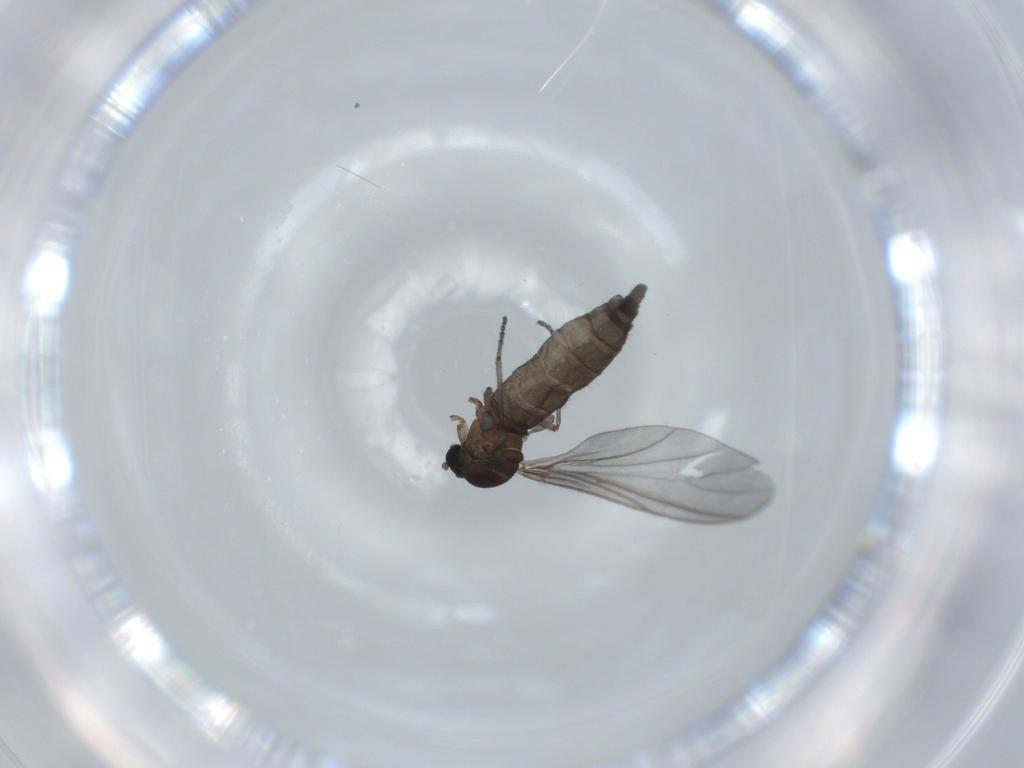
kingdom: Animalia
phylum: Arthropoda
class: Insecta
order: Diptera
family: Sciaridae
